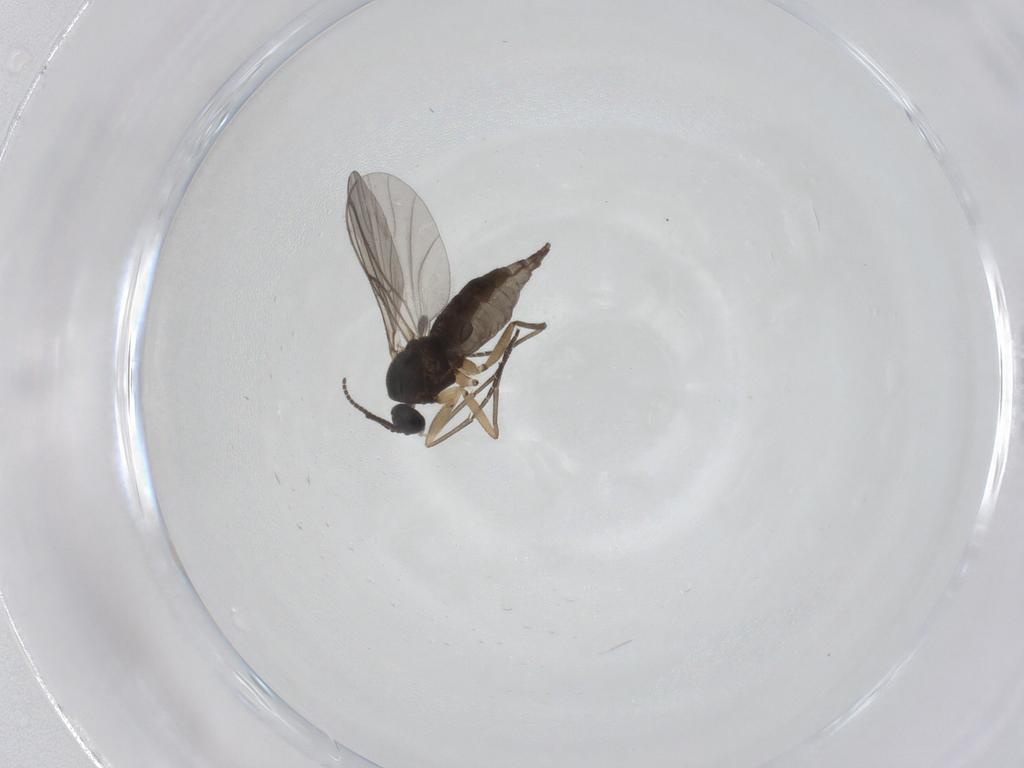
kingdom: Animalia
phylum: Arthropoda
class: Insecta
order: Diptera
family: Sciaridae
